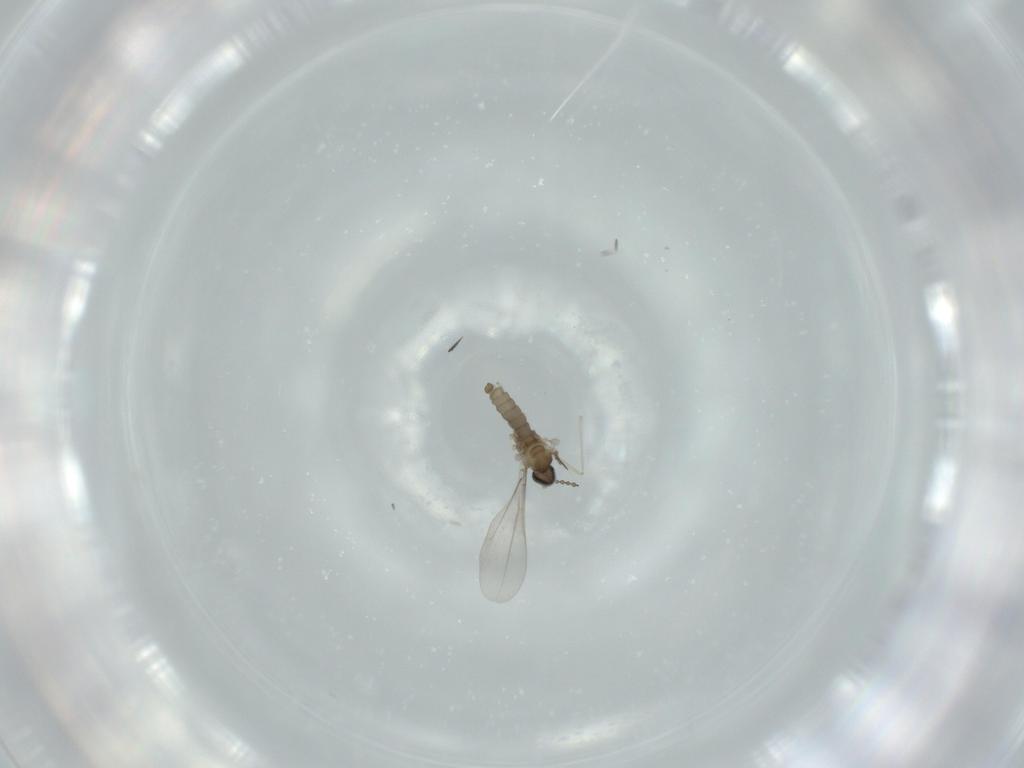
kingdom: Animalia
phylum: Arthropoda
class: Insecta
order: Diptera
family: Cecidomyiidae
